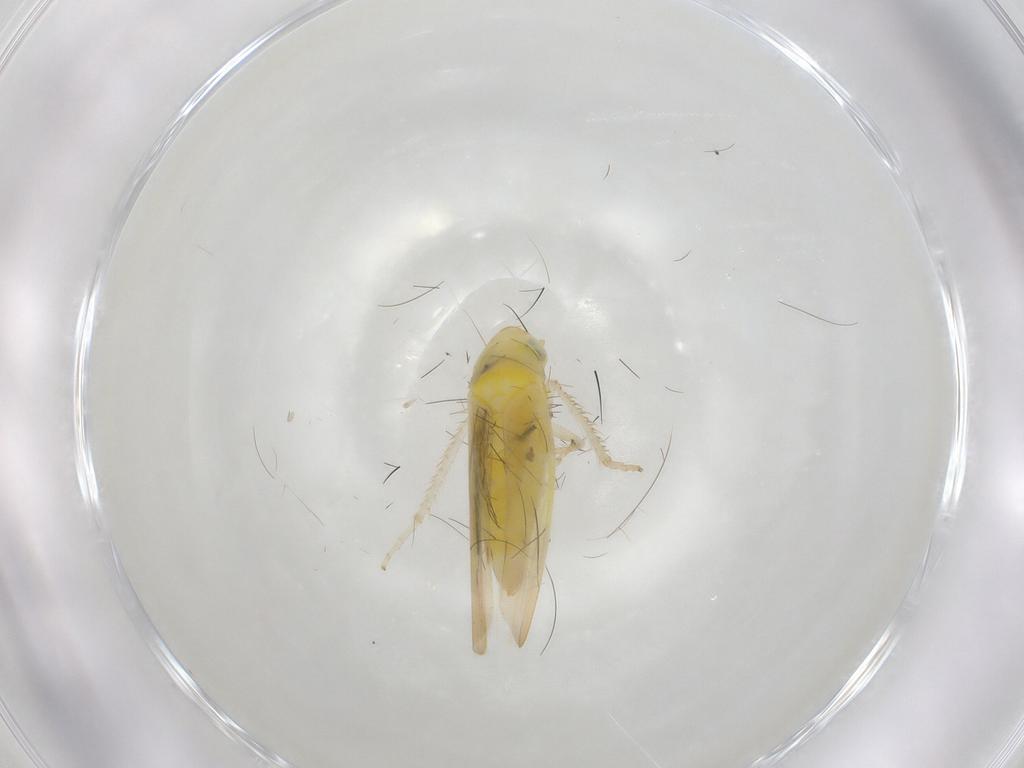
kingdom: Animalia
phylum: Arthropoda
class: Insecta
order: Hemiptera
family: Cicadellidae
